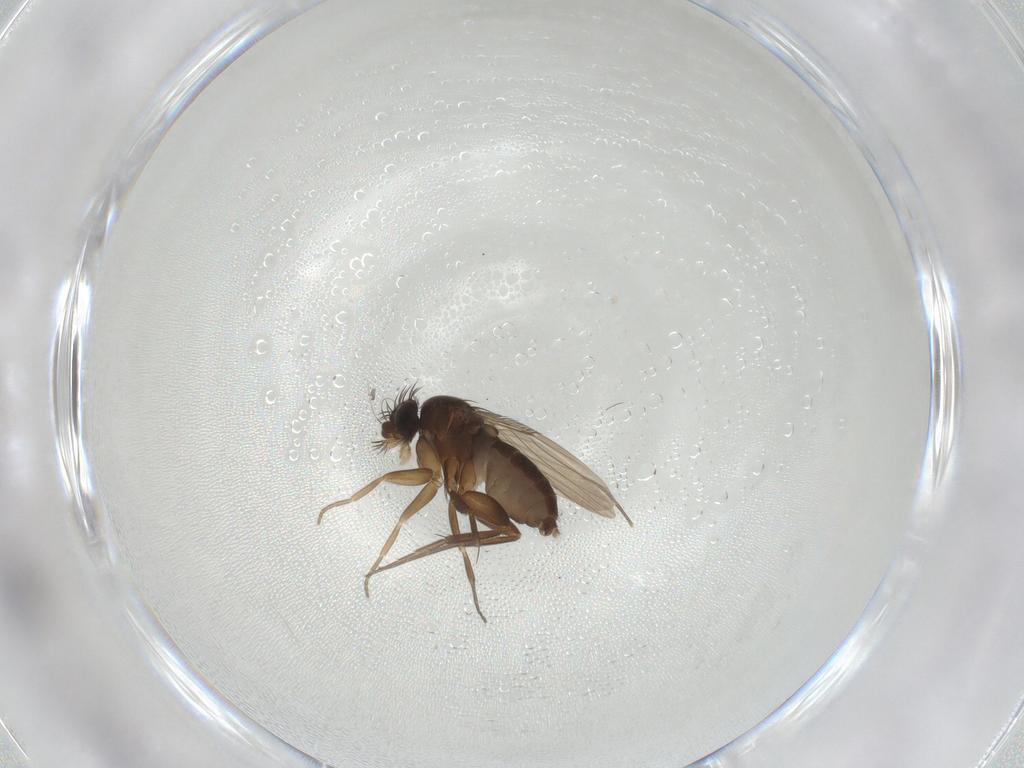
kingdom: Animalia
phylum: Arthropoda
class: Insecta
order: Diptera
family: Phoridae
